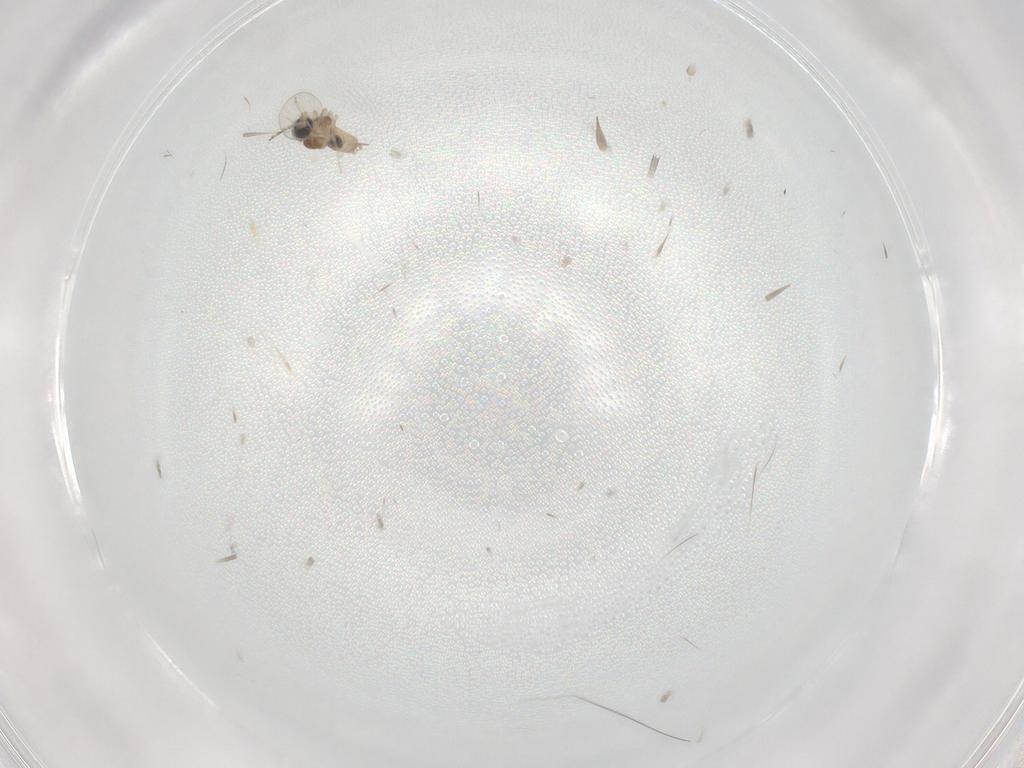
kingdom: Animalia
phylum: Arthropoda
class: Insecta
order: Diptera
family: Cecidomyiidae
